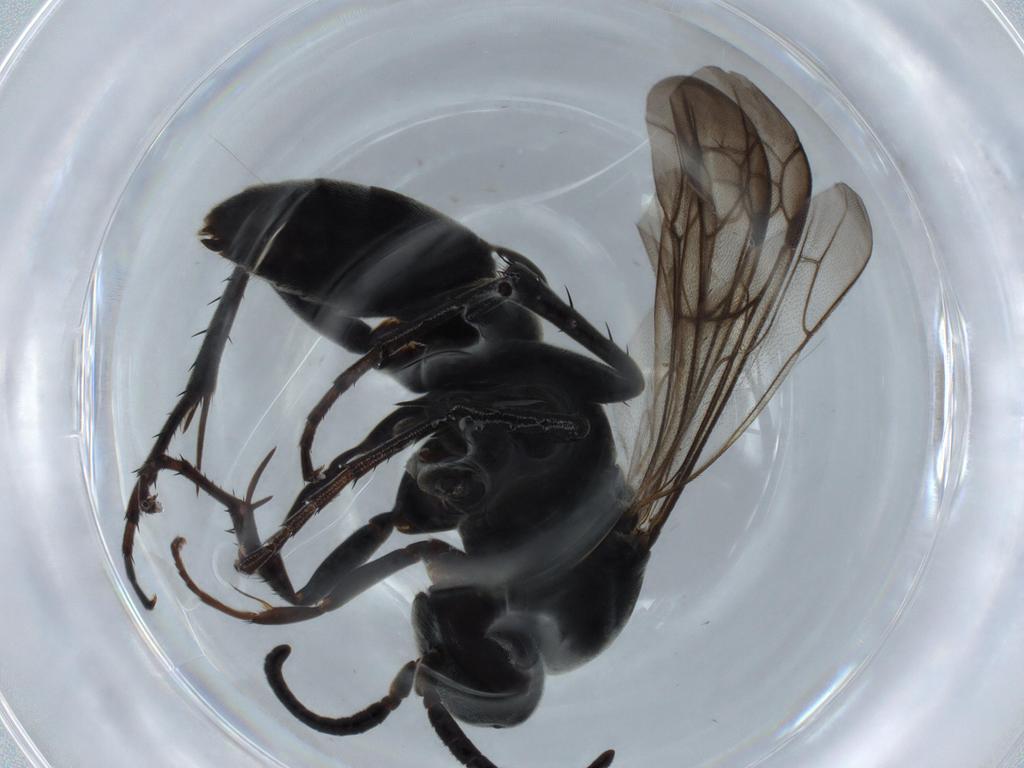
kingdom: Animalia
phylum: Arthropoda
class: Insecta
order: Hymenoptera
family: Pompilidae
